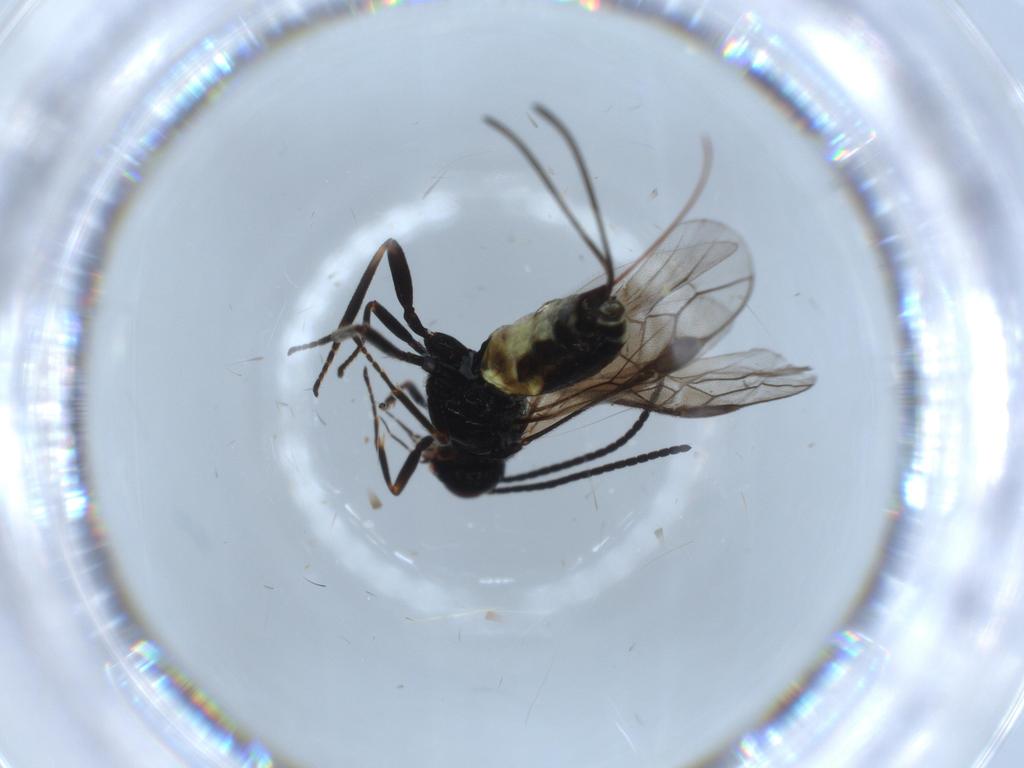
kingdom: Animalia
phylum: Arthropoda
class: Insecta
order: Hymenoptera
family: Braconidae
